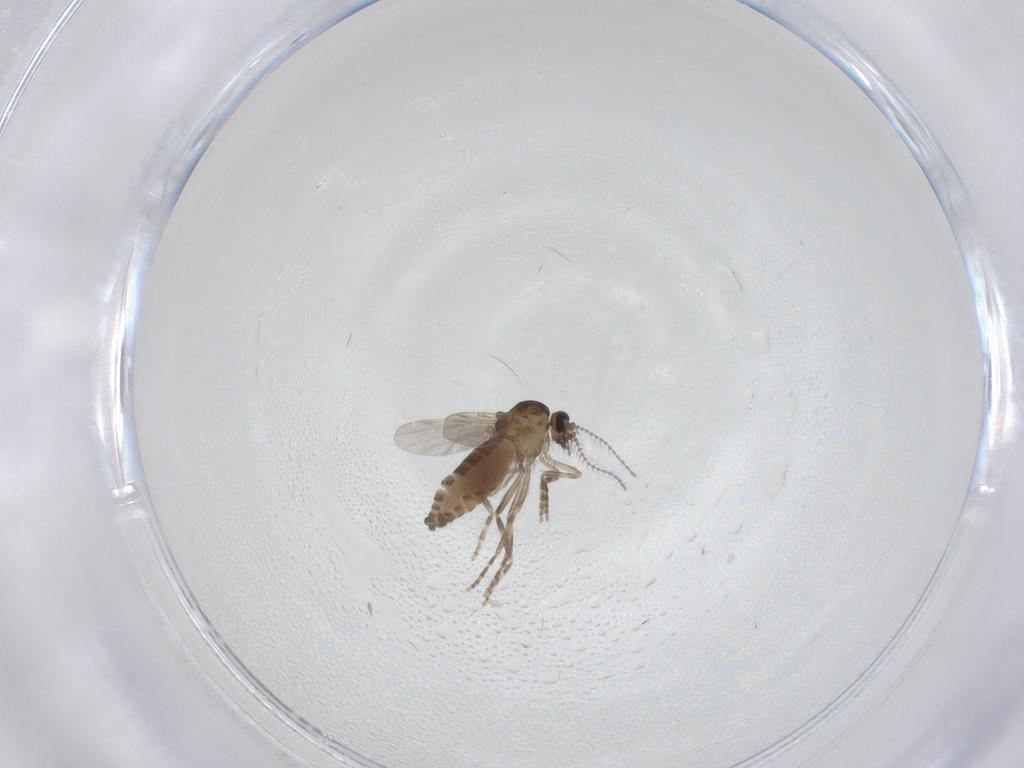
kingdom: Animalia
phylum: Arthropoda
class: Insecta
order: Diptera
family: Ceratopogonidae
